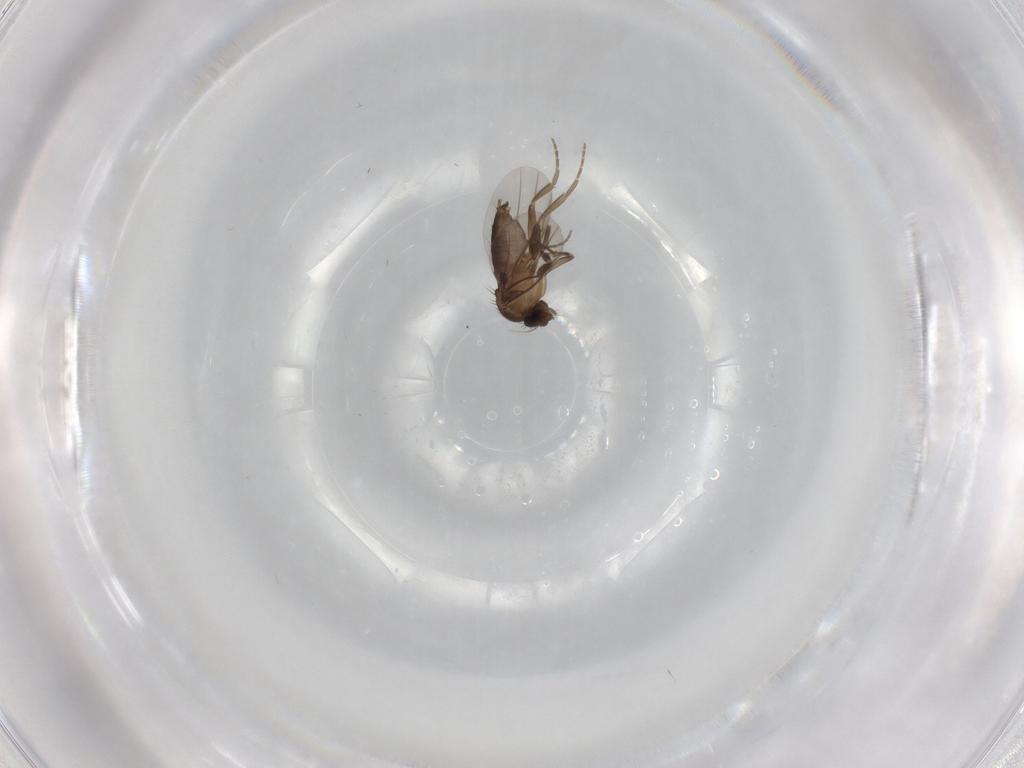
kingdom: Animalia
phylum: Arthropoda
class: Insecta
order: Diptera
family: Phoridae
